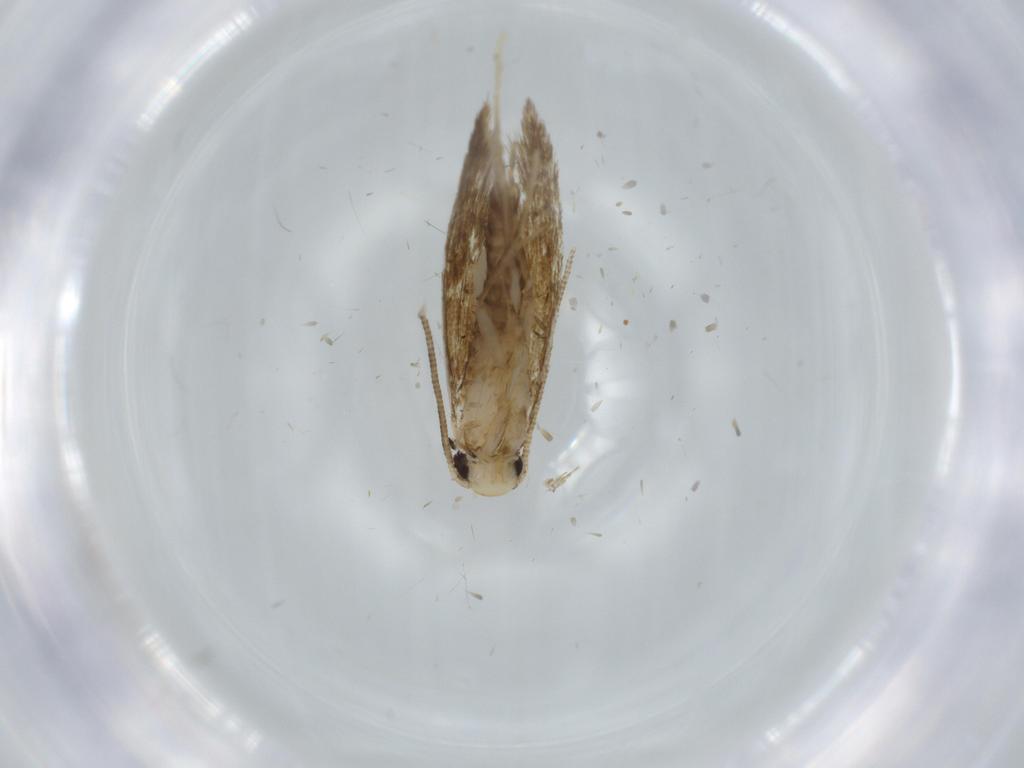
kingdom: Animalia
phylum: Arthropoda
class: Insecta
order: Lepidoptera
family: Tineidae
